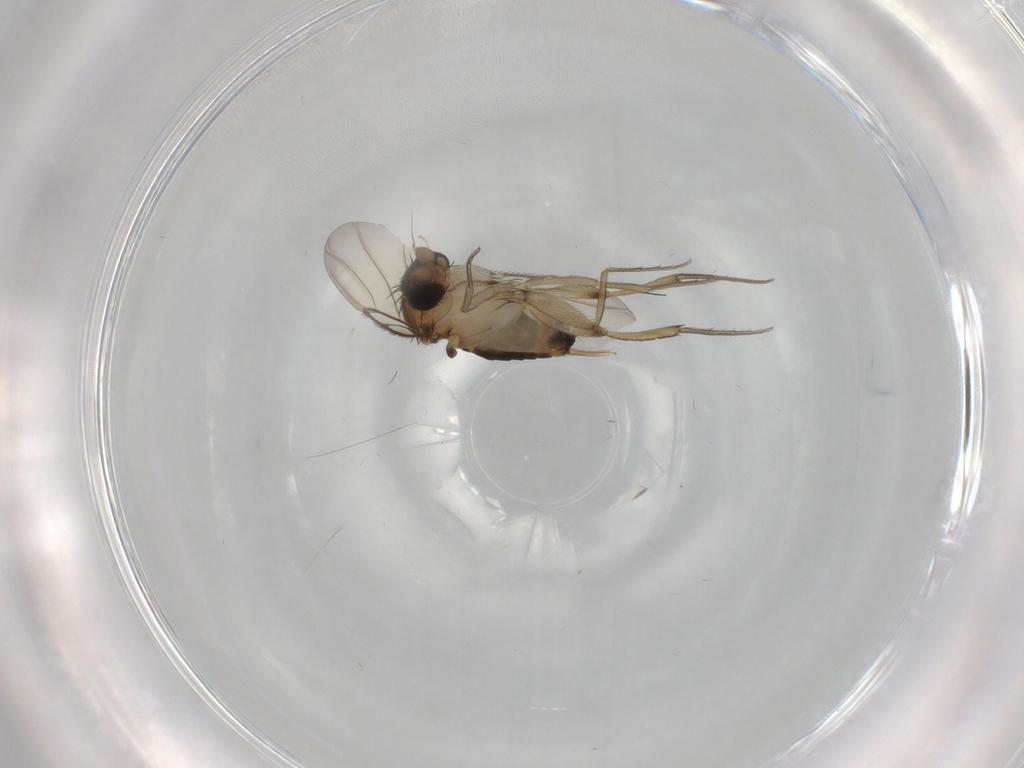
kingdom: Animalia
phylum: Arthropoda
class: Insecta
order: Diptera
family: Phoridae
